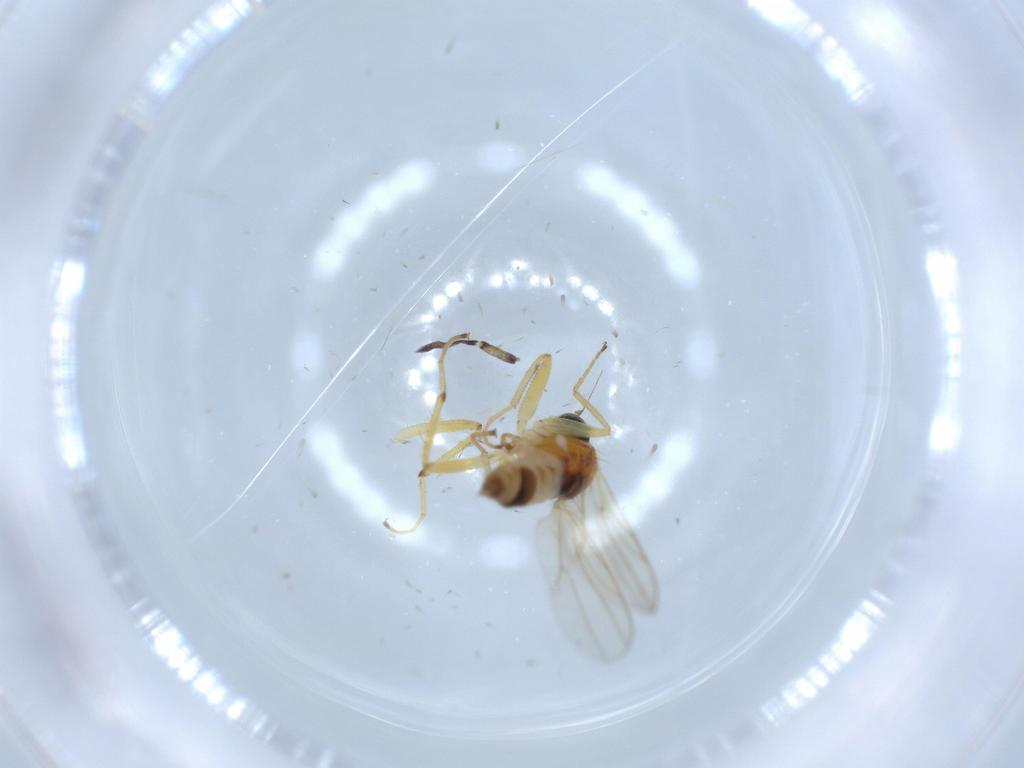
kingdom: Animalia
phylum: Arthropoda
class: Insecta
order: Diptera
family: Hybotidae
